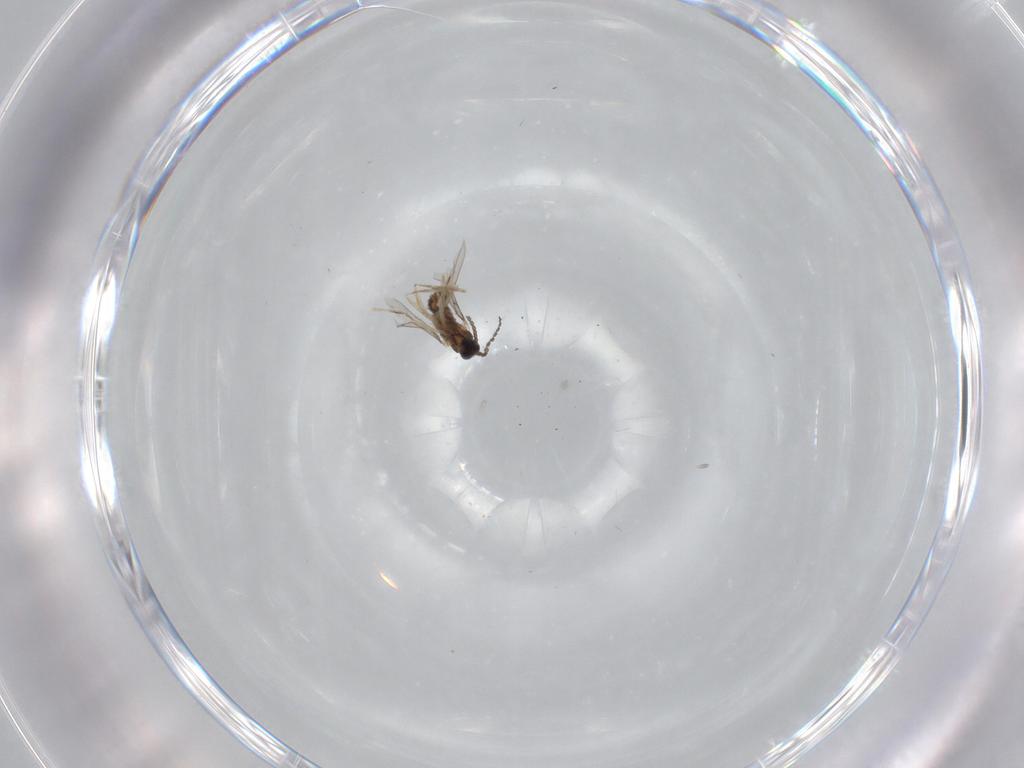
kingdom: Animalia
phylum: Arthropoda
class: Insecta
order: Diptera
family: Cecidomyiidae
